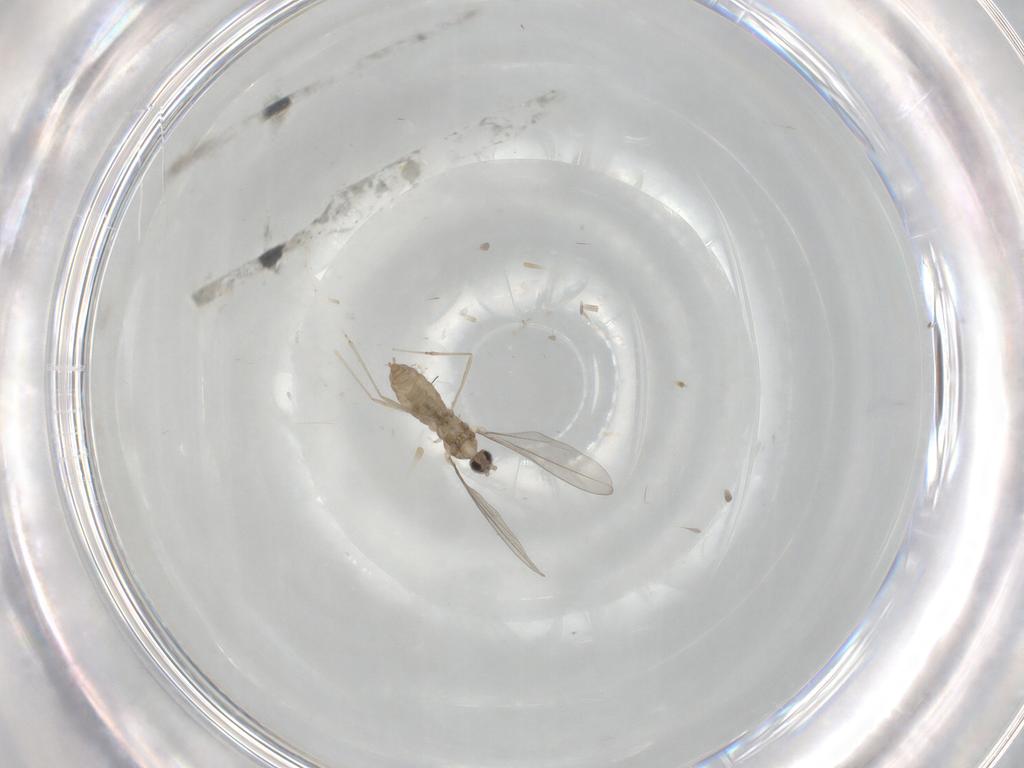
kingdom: Animalia
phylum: Arthropoda
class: Insecta
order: Diptera
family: Cecidomyiidae
